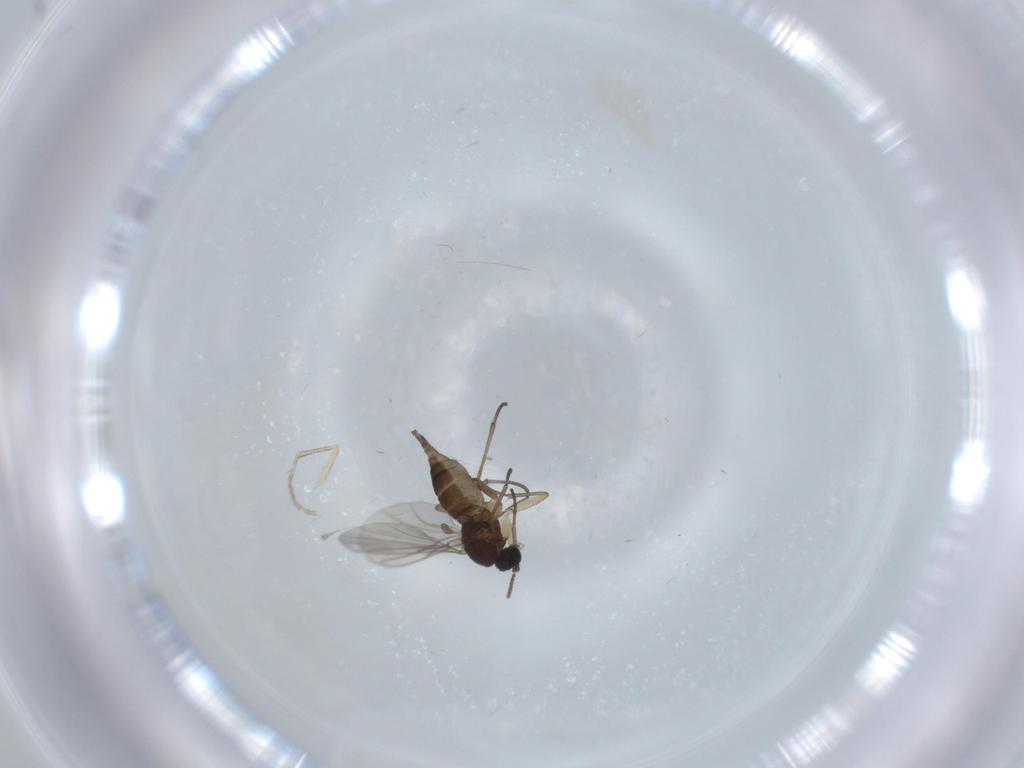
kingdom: Animalia
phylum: Arthropoda
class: Insecta
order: Diptera
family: Sciaridae
